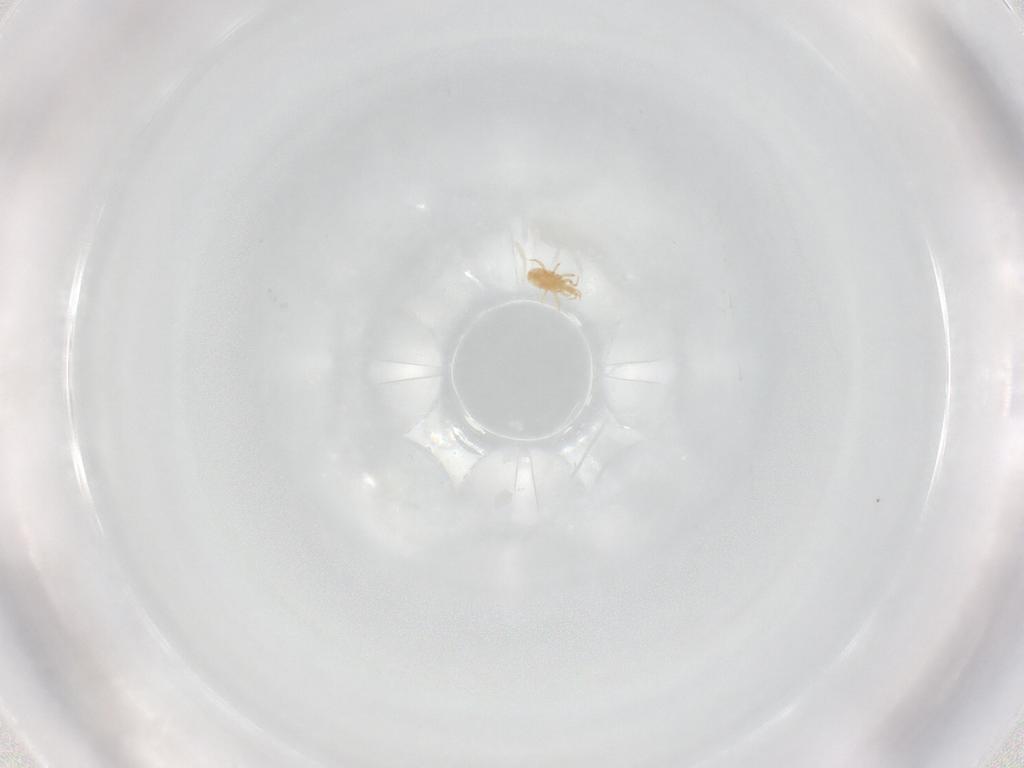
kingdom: Animalia
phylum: Arthropoda
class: Arachnida
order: Mesostigmata
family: Ascidae
